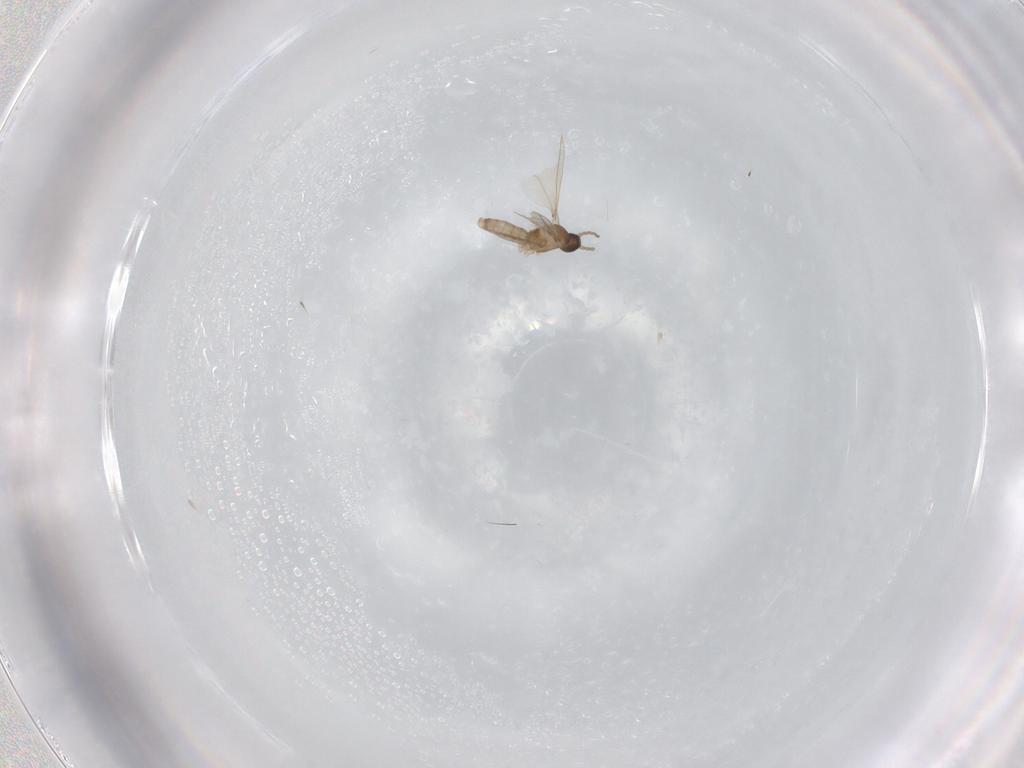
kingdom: Animalia
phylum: Arthropoda
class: Insecta
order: Diptera
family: Cecidomyiidae
